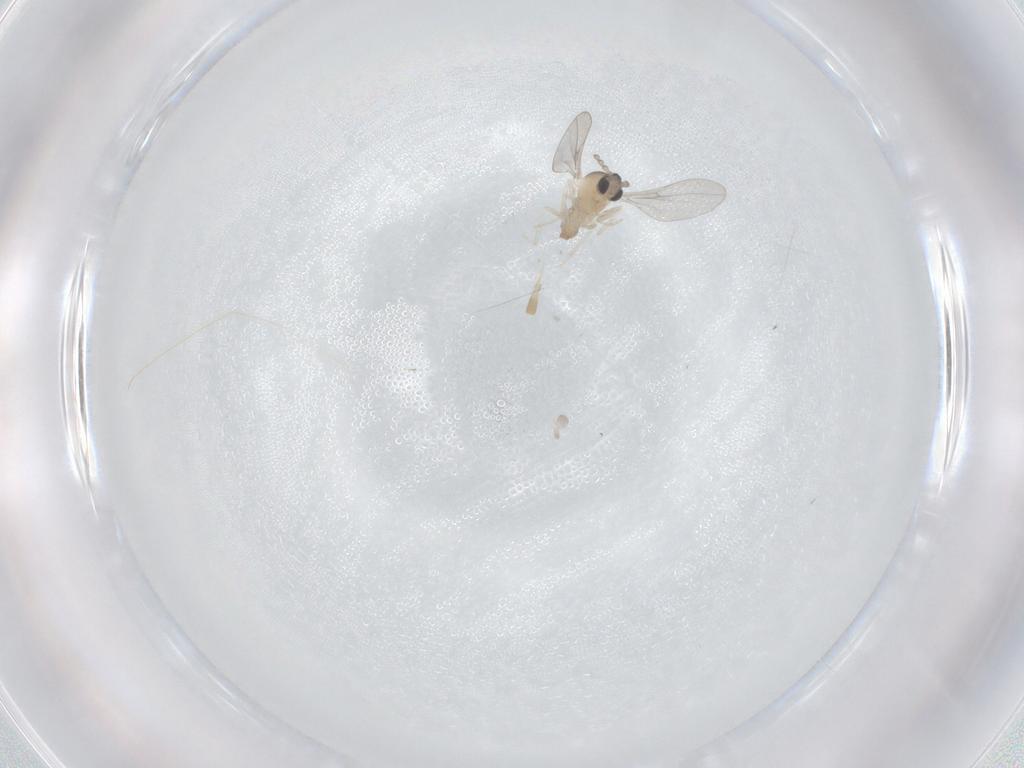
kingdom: Animalia
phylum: Arthropoda
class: Insecta
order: Diptera
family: Cecidomyiidae
